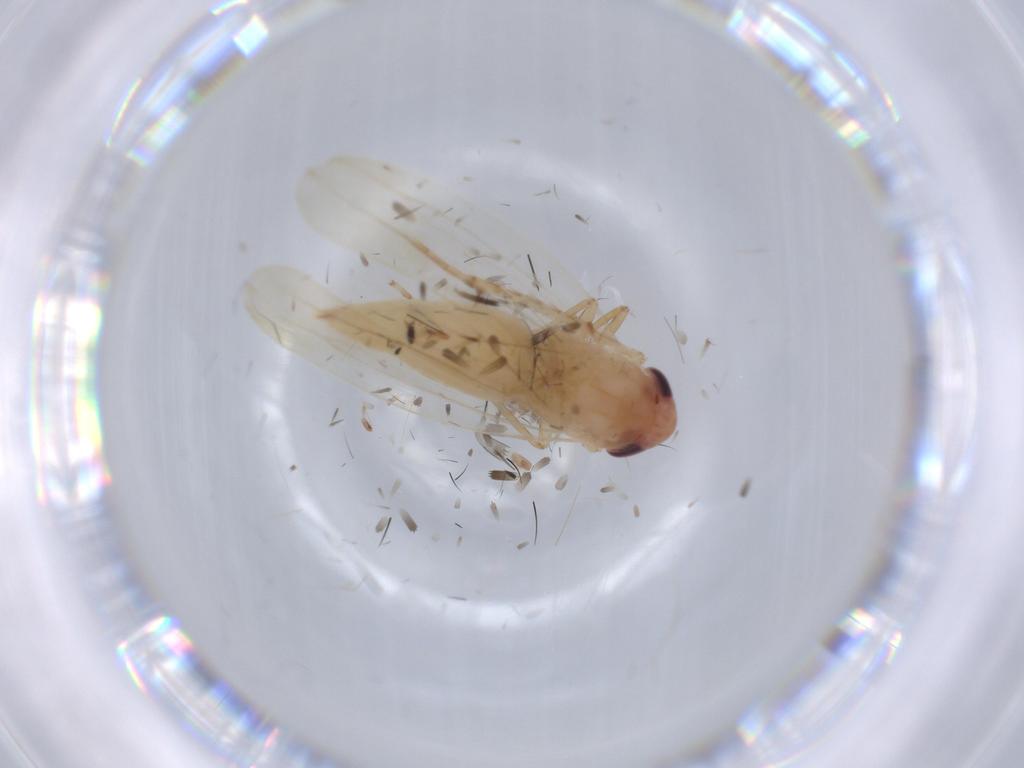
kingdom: Animalia
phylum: Arthropoda
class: Insecta
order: Hemiptera
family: Cicadellidae
